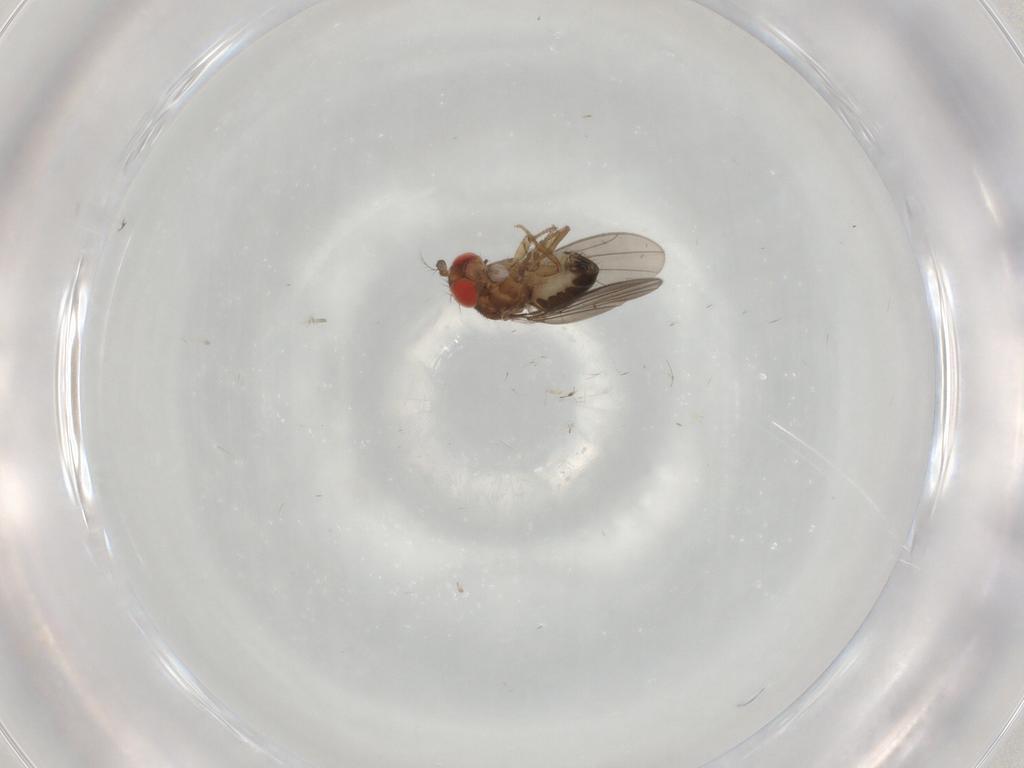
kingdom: Animalia
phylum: Arthropoda
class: Insecta
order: Diptera
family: Drosophilidae
